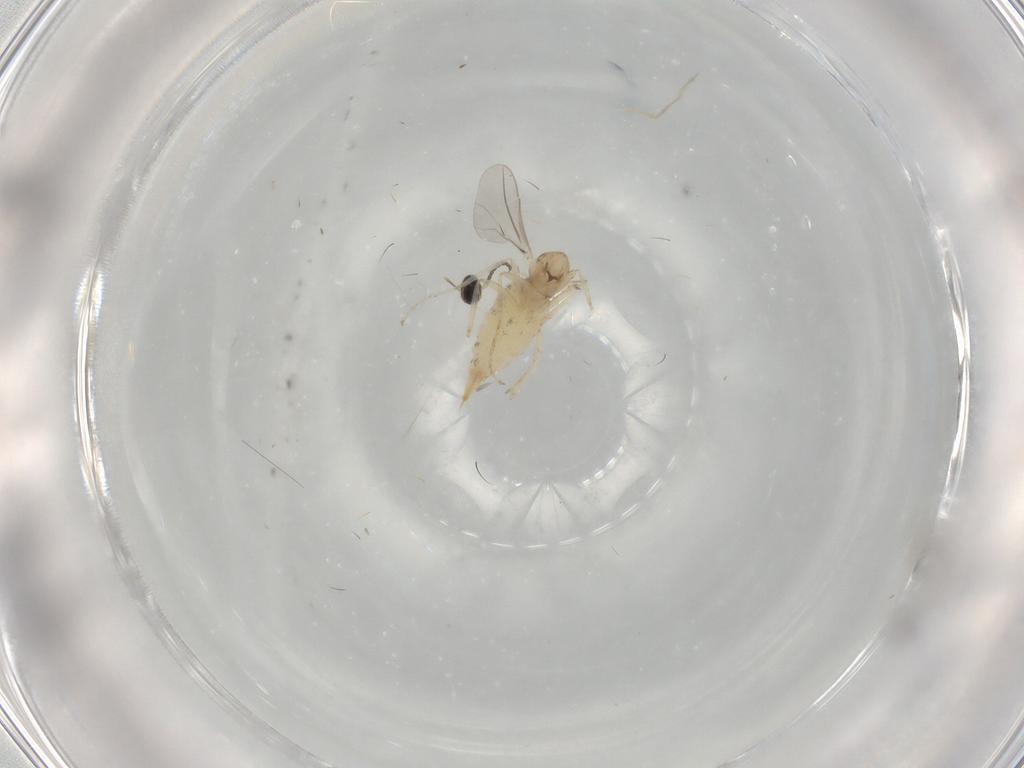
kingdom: Animalia
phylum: Arthropoda
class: Insecta
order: Diptera
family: Cecidomyiidae
